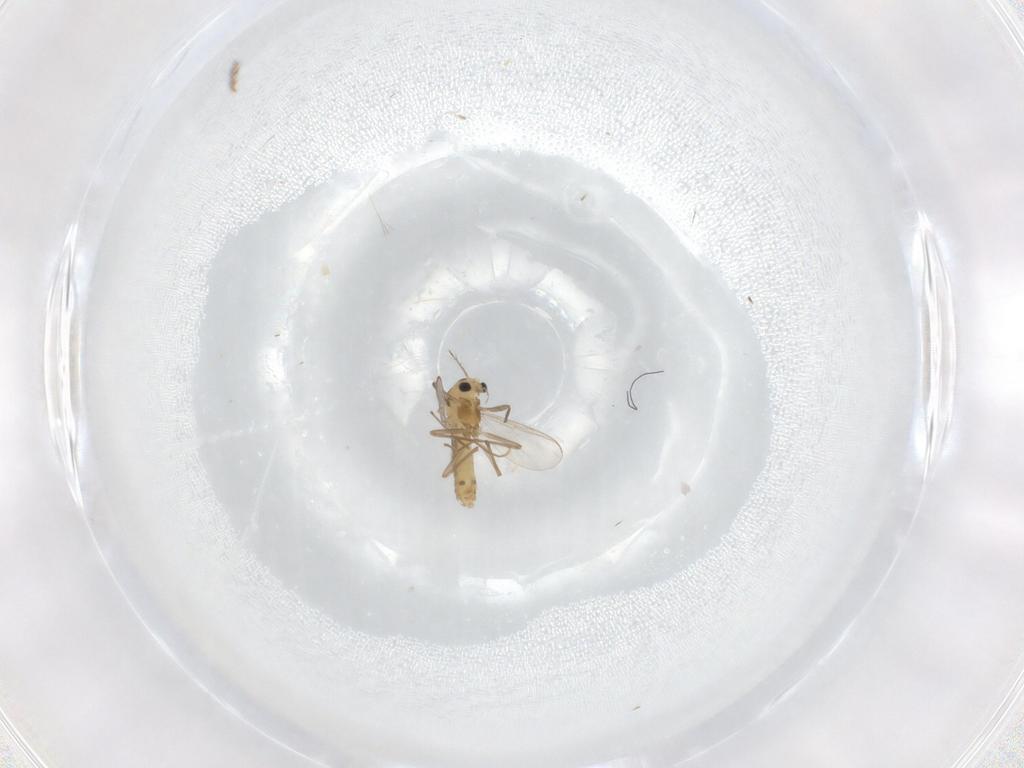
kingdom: Animalia
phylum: Arthropoda
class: Insecta
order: Diptera
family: Chironomidae
